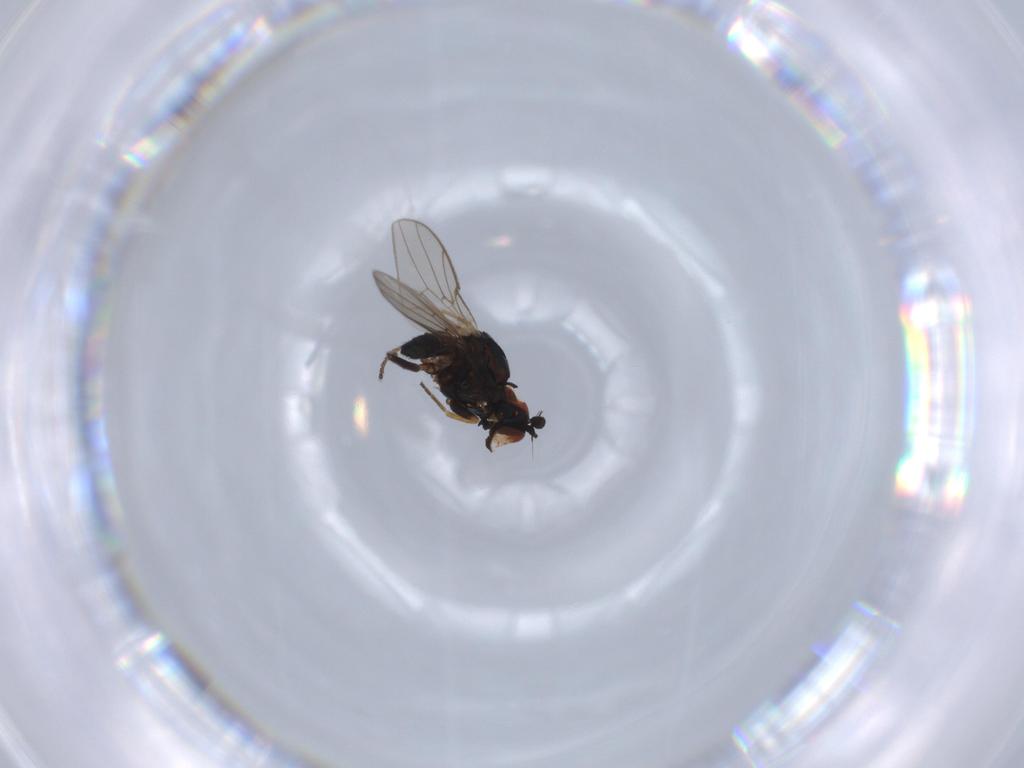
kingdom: Animalia
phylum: Arthropoda
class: Insecta
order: Diptera
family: Chloropidae
